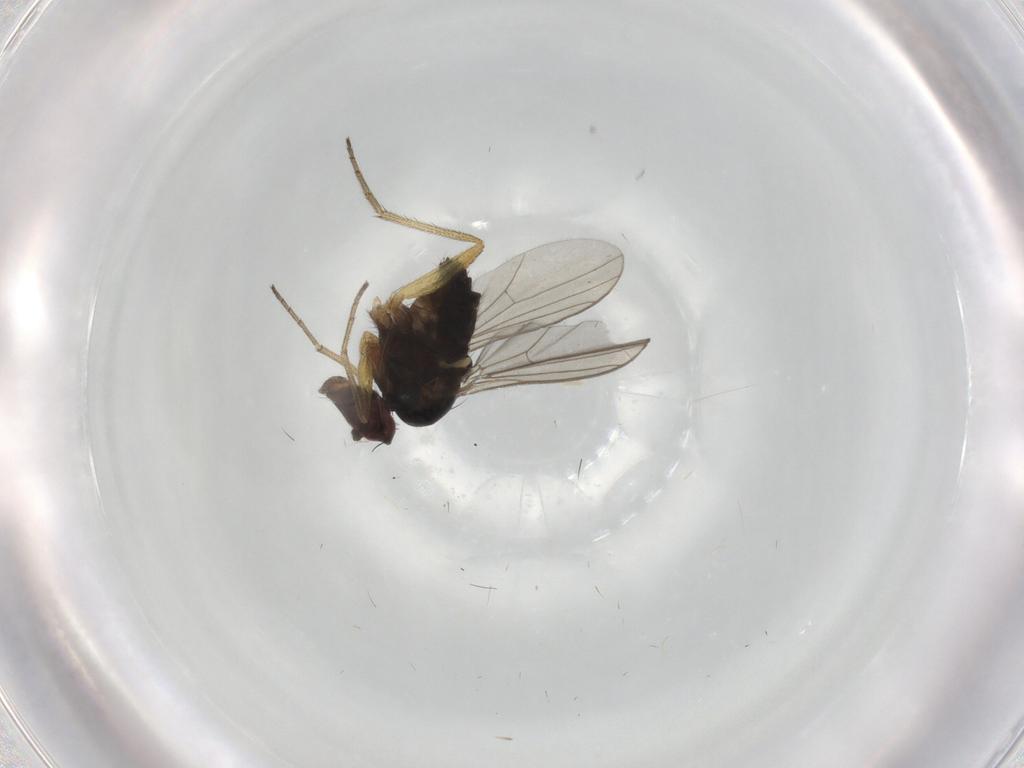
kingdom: Animalia
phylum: Arthropoda
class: Insecta
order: Diptera
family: Dolichopodidae
